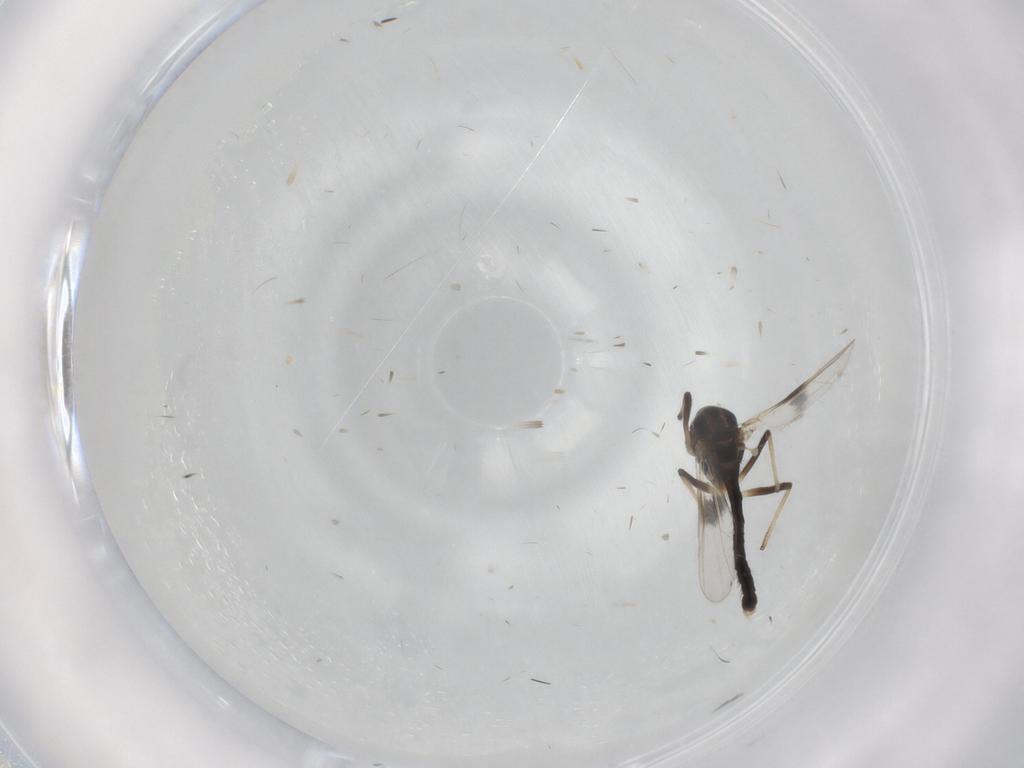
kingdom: Animalia
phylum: Arthropoda
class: Insecta
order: Diptera
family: Chironomidae
